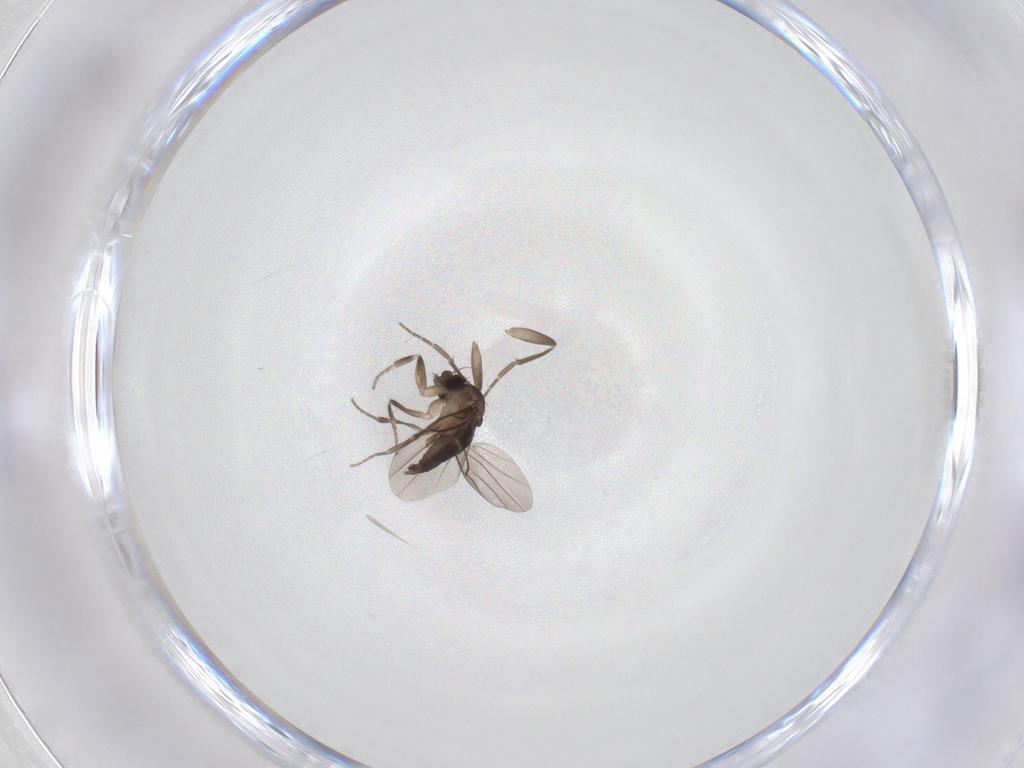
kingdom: Animalia
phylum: Arthropoda
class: Insecta
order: Diptera
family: Phoridae
